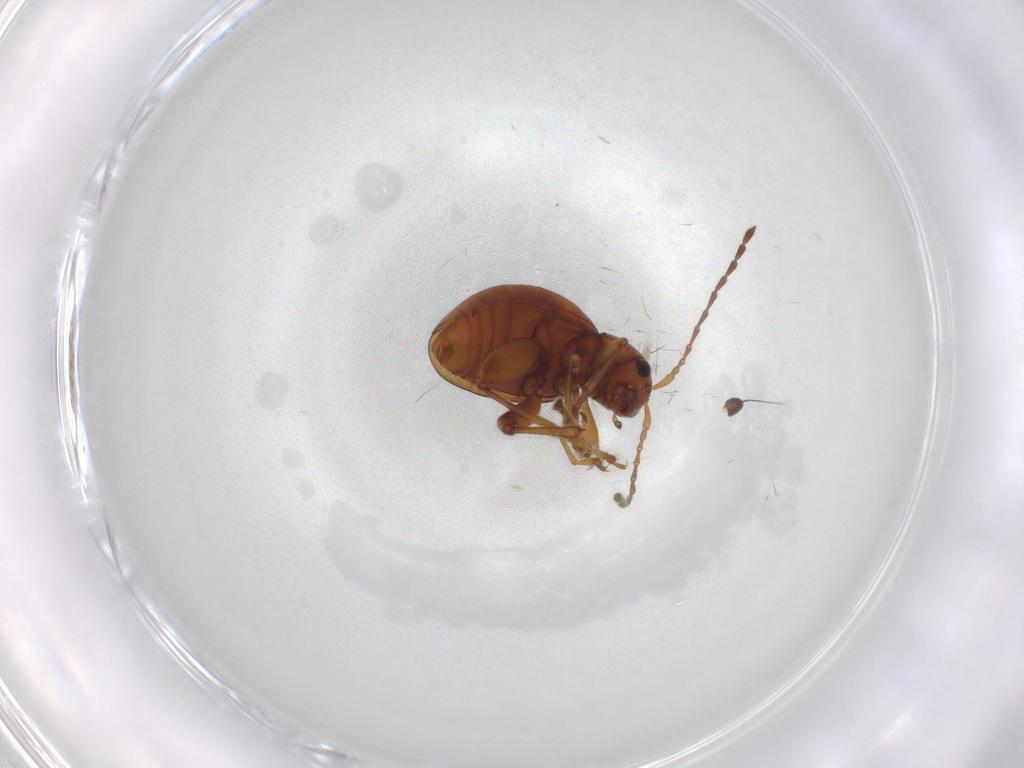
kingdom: Animalia
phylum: Arthropoda
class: Insecta
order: Coleoptera
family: Chrysomelidae
